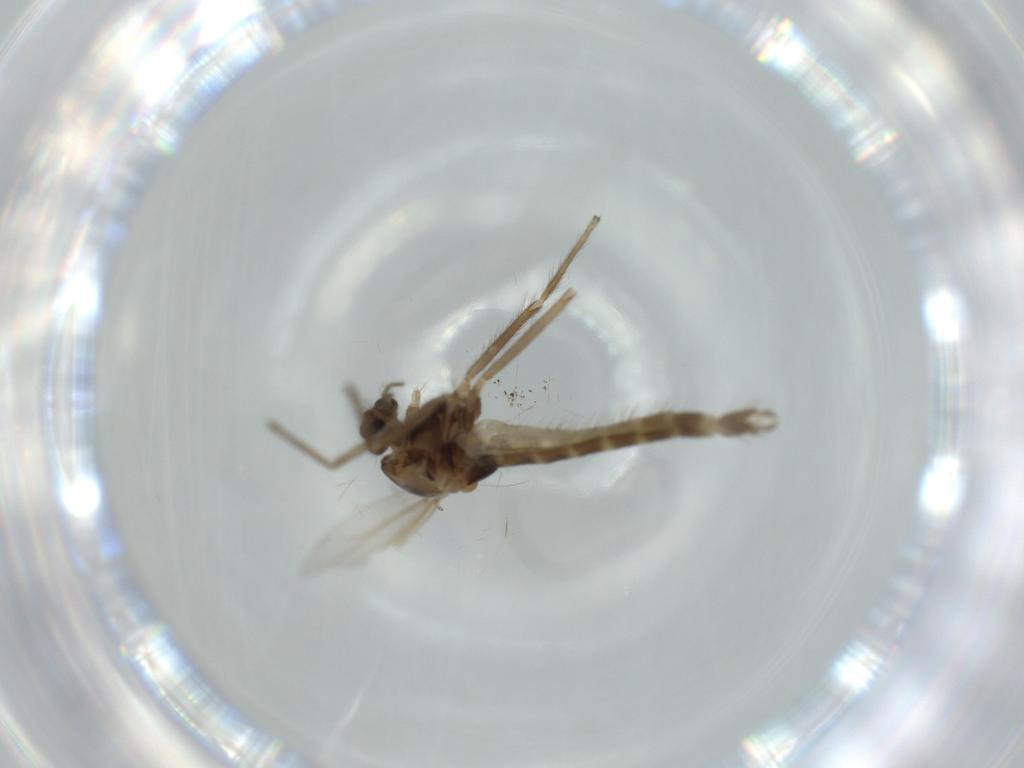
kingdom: Animalia
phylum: Arthropoda
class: Insecta
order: Diptera
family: Chironomidae
